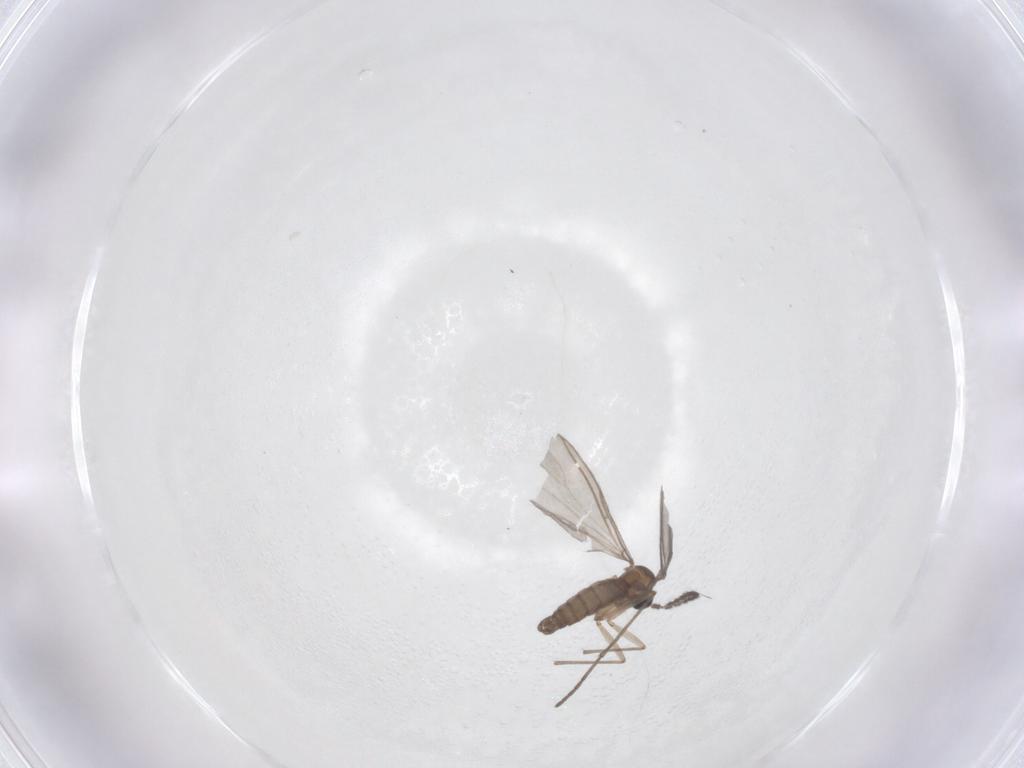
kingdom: Animalia
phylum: Arthropoda
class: Insecta
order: Diptera
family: Sciaridae
